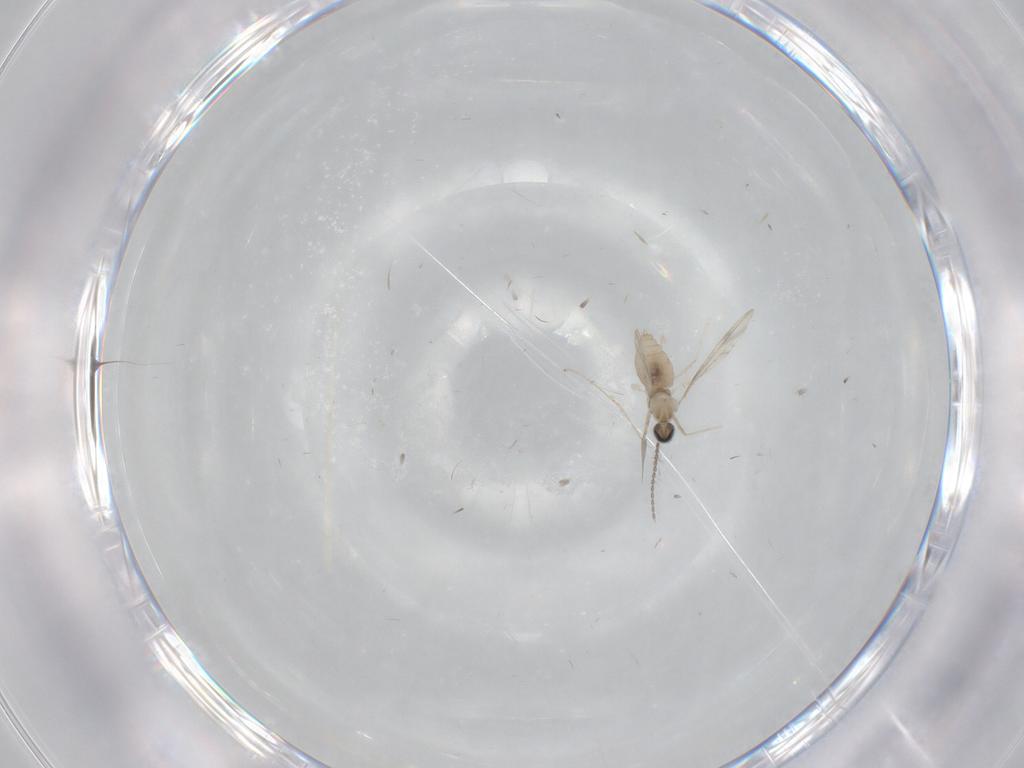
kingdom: Animalia
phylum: Arthropoda
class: Insecta
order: Diptera
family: Cecidomyiidae
